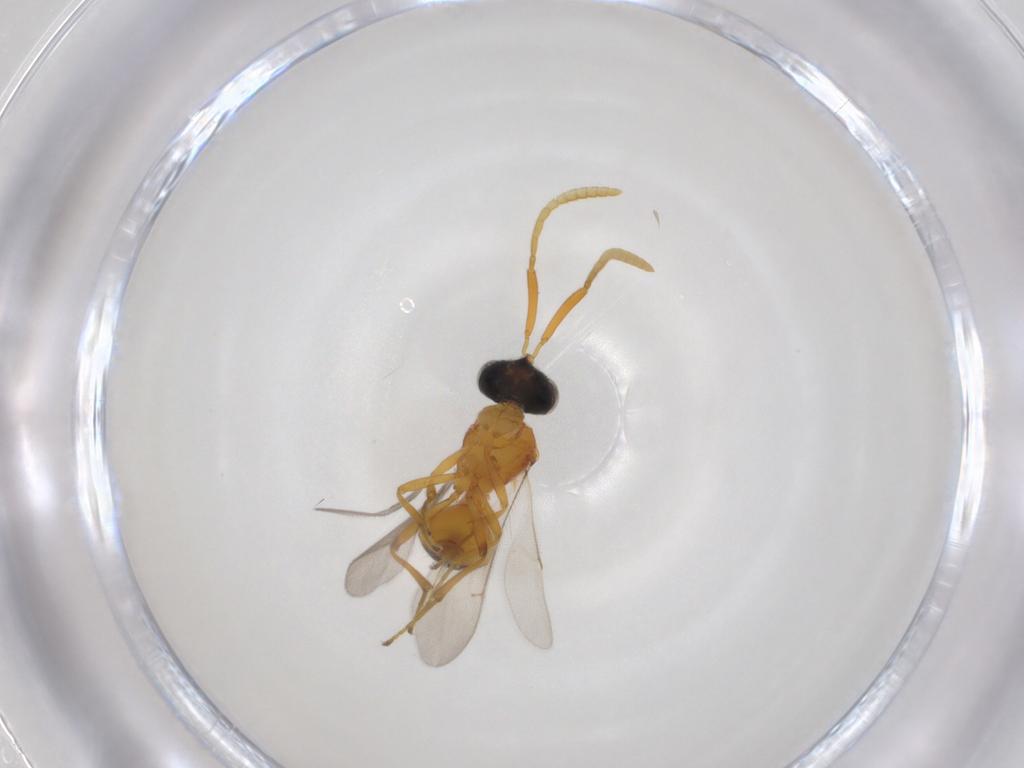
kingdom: Animalia
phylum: Arthropoda
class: Insecta
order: Hymenoptera
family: Scelionidae
